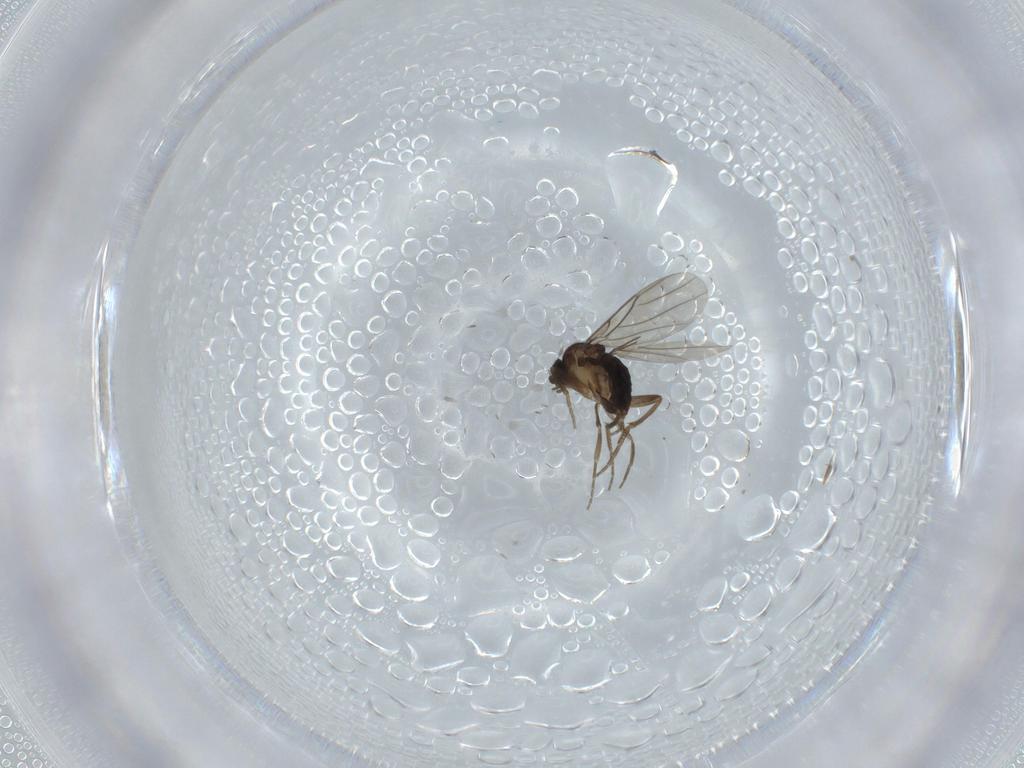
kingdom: Animalia
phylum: Arthropoda
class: Insecta
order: Diptera
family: Phoridae
